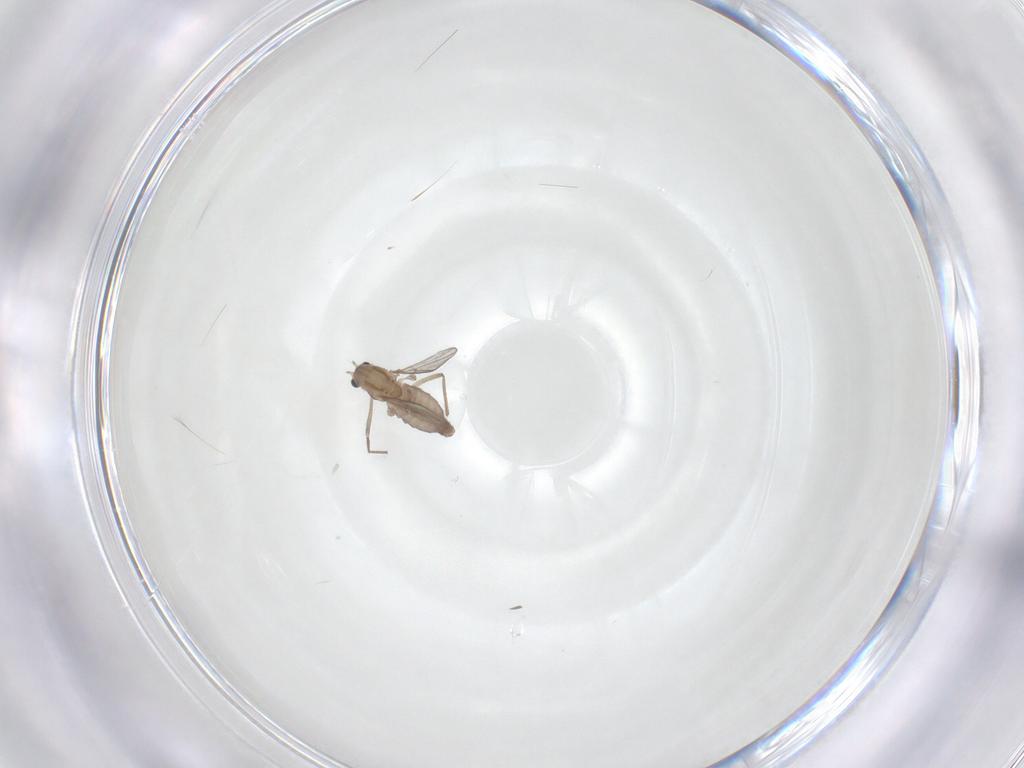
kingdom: Animalia
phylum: Arthropoda
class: Insecta
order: Diptera
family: Chironomidae
